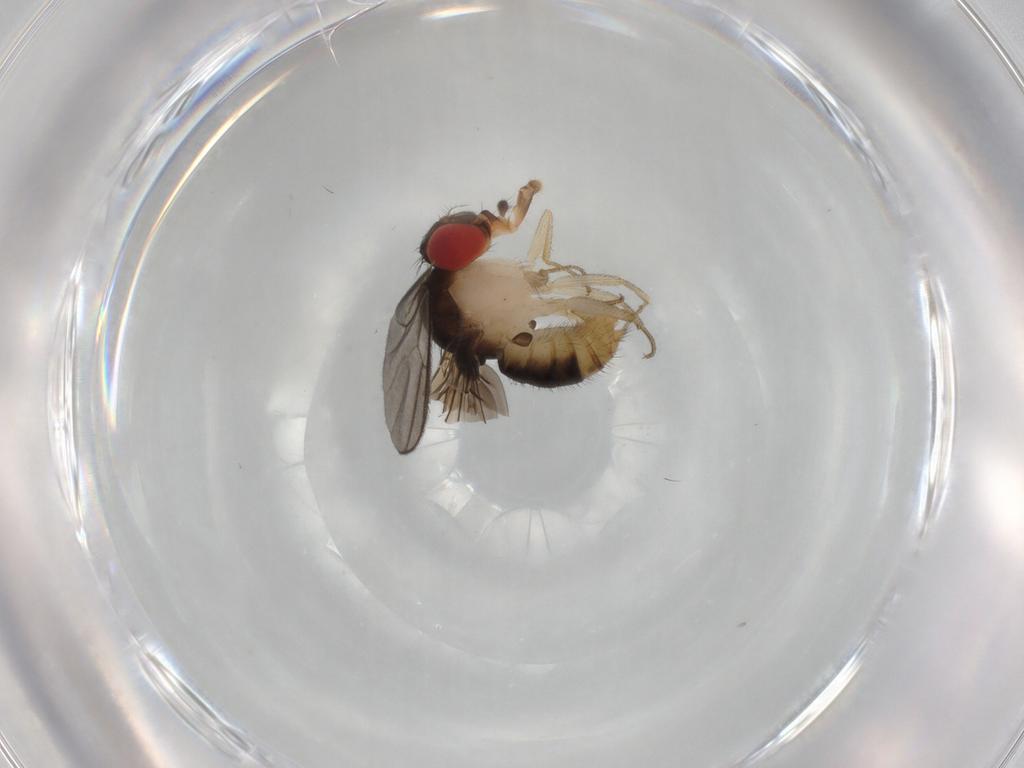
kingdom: Animalia
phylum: Arthropoda
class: Insecta
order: Diptera
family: Drosophilidae
